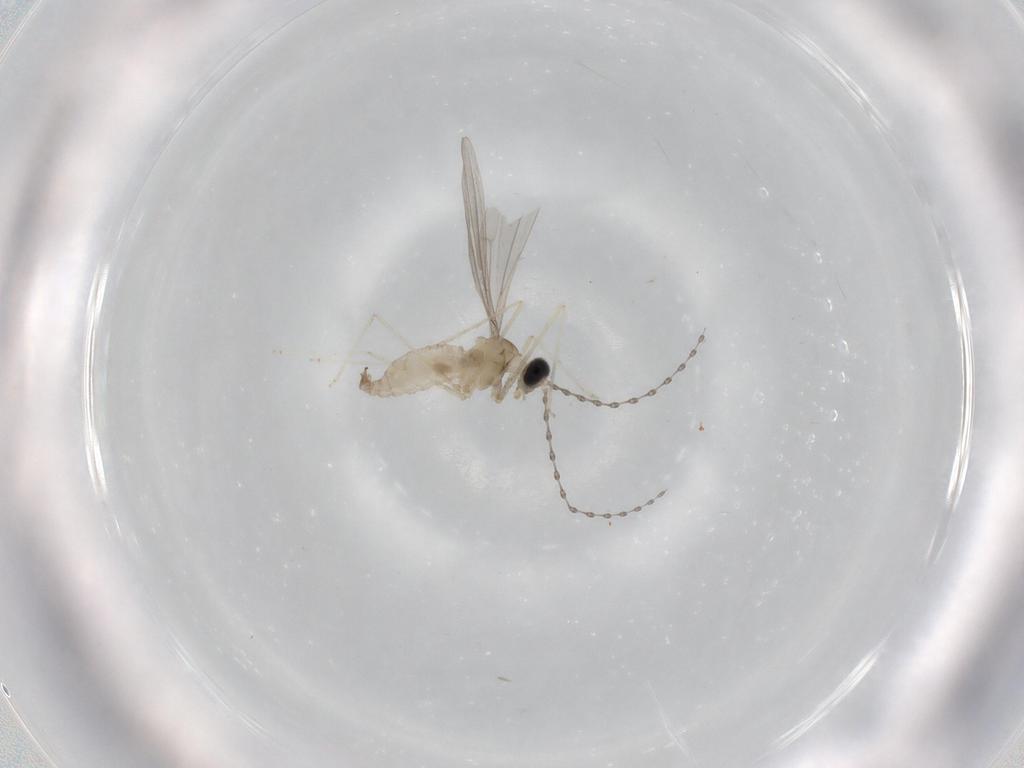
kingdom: Animalia
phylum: Arthropoda
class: Insecta
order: Diptera
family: Cecidomyiidae
